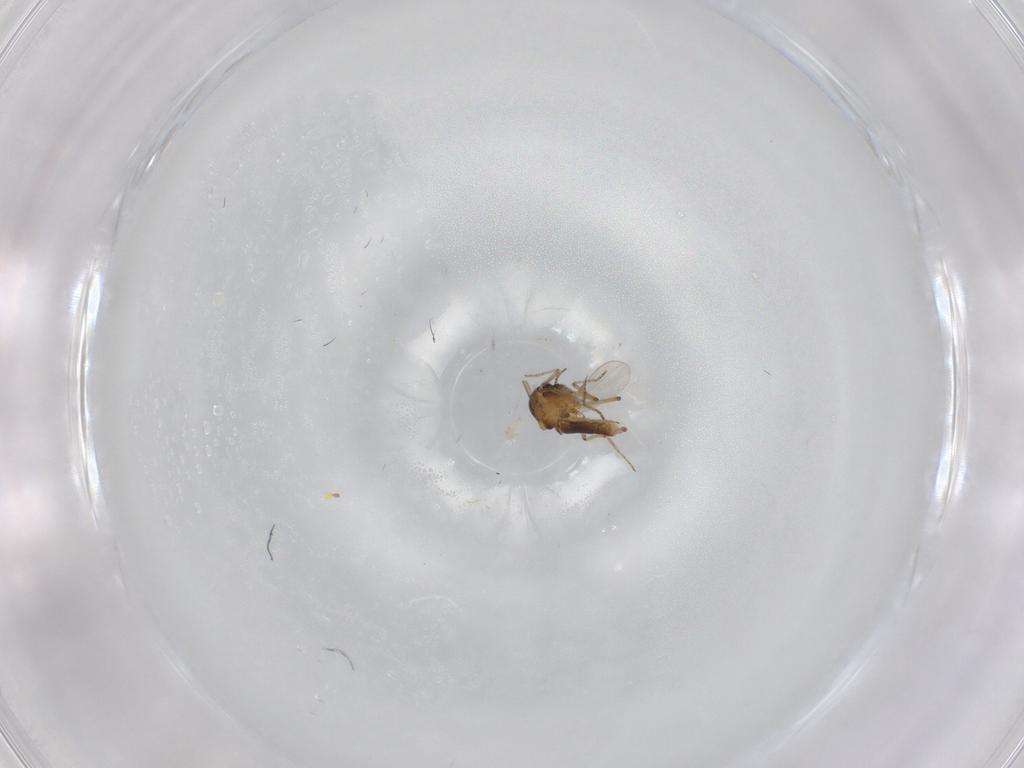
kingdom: Animalia
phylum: Arthropoda
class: Insecta
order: Diptera
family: Ceratopogonidae
